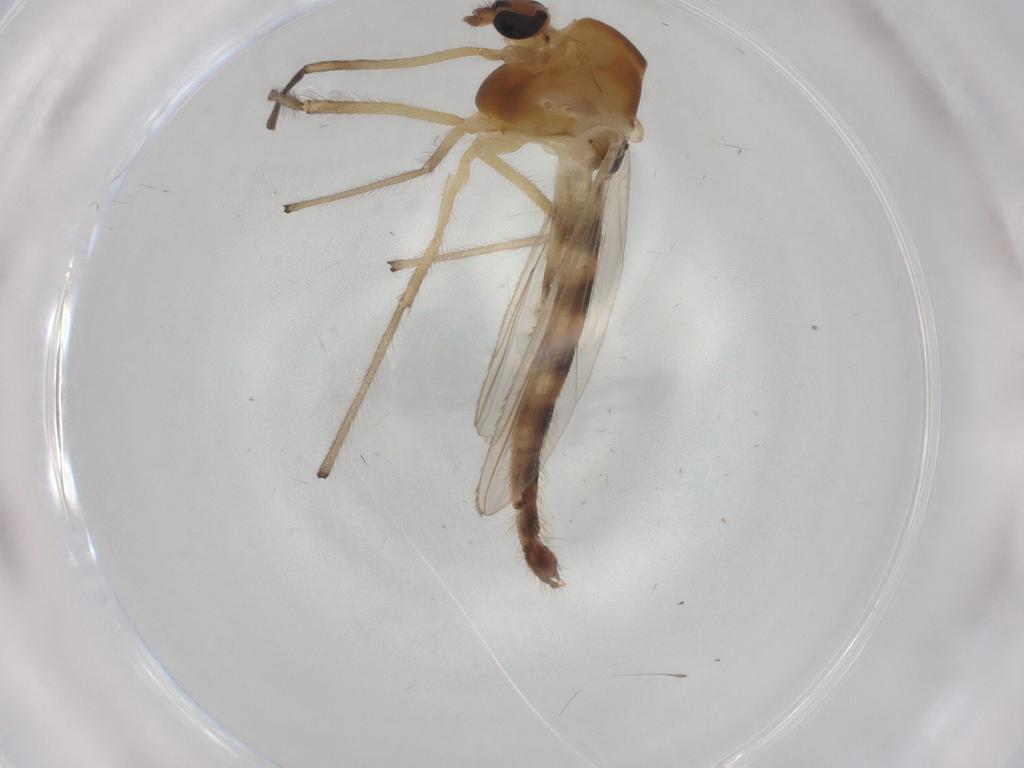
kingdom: Animalia
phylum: Arthropoda
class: Insecta
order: Diptera
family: Chironomidae
